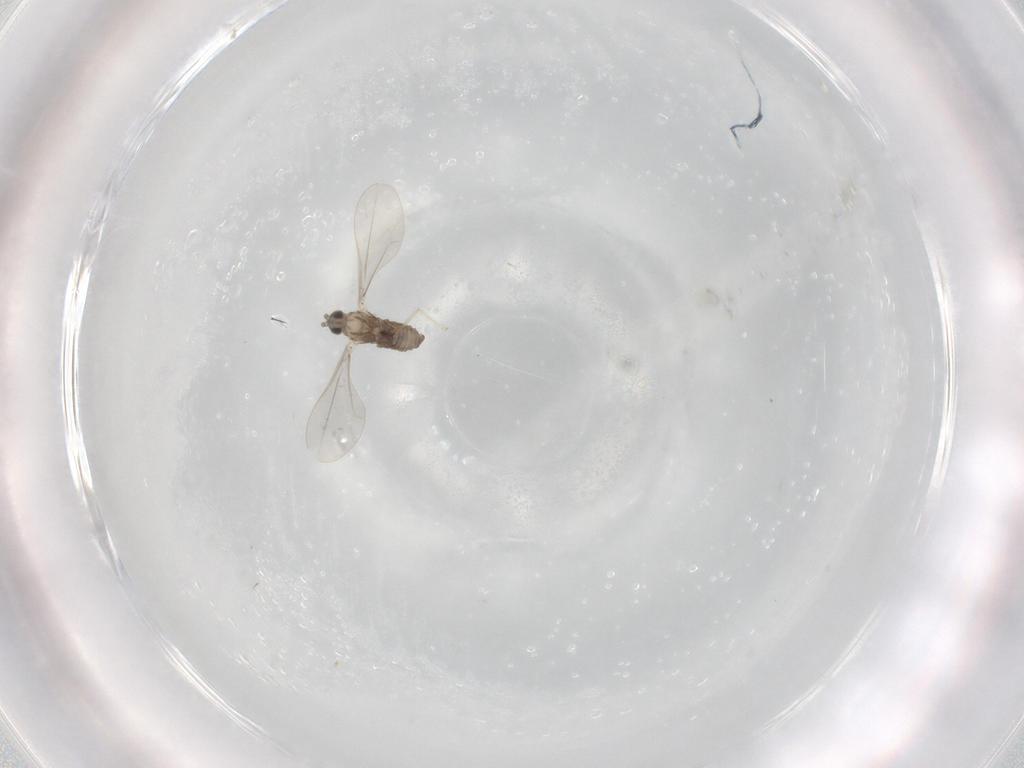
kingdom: Animalia
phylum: Arthropoda
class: Insecta
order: Diptera
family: Cecidomyiidae
